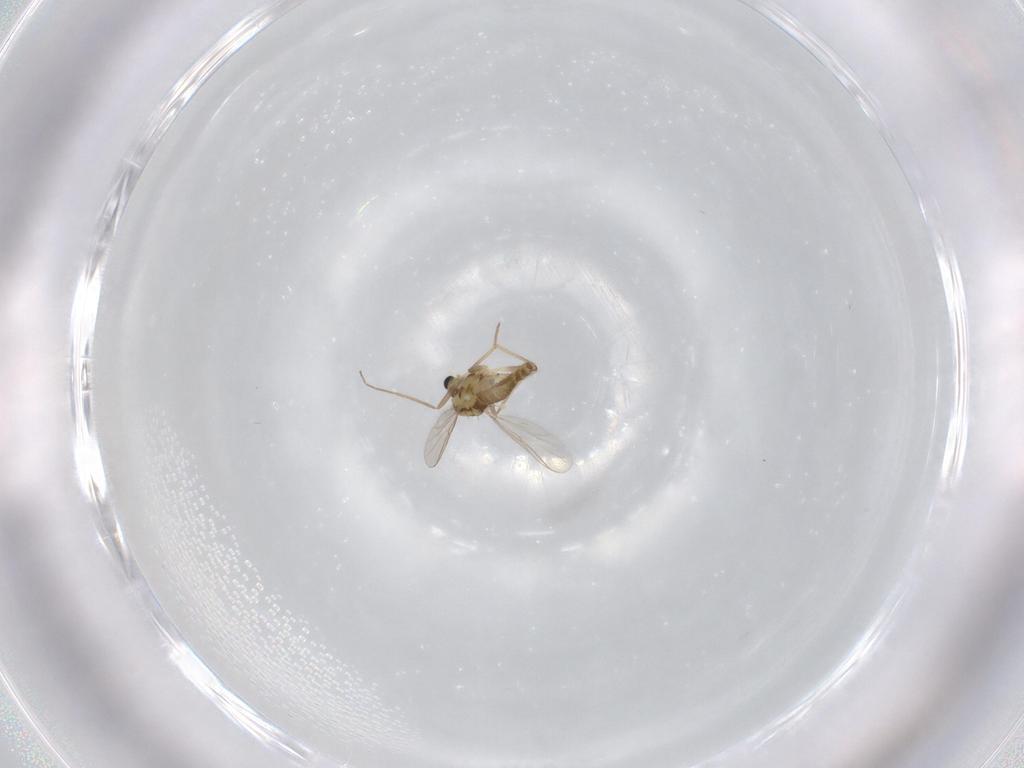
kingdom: Animalia
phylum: Arthropoda
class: Insecta
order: Diptera
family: Chironomidae
